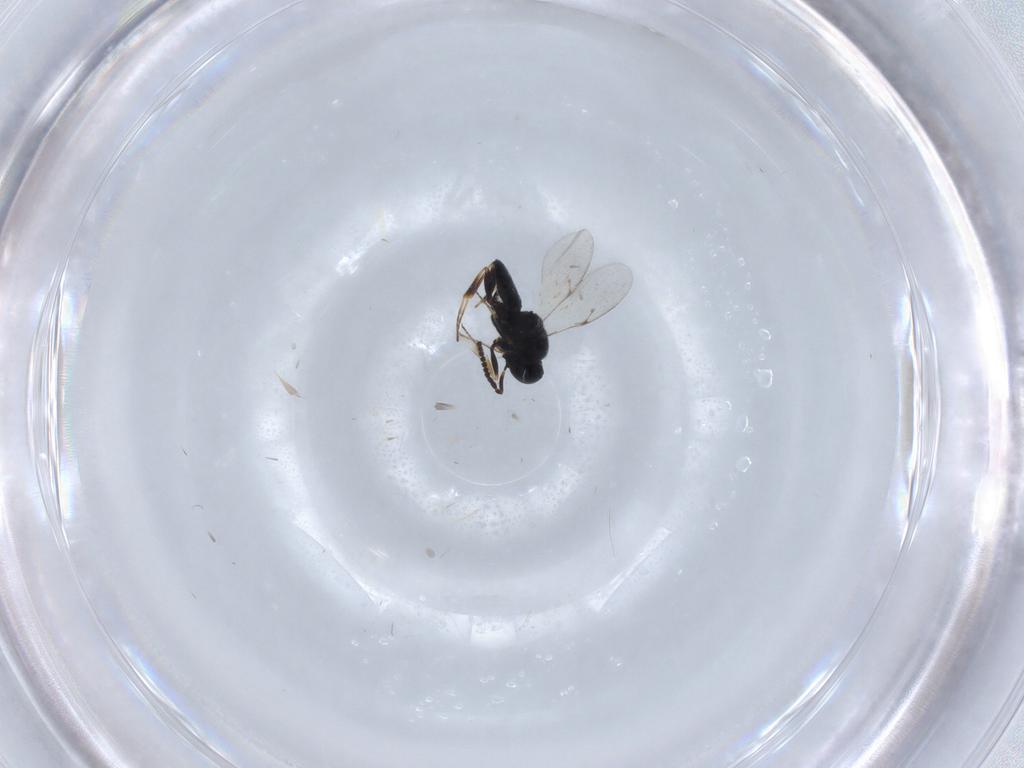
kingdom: Animalia
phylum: Arthropoda
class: Insecta
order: Hymenoptera
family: Scelionidae
